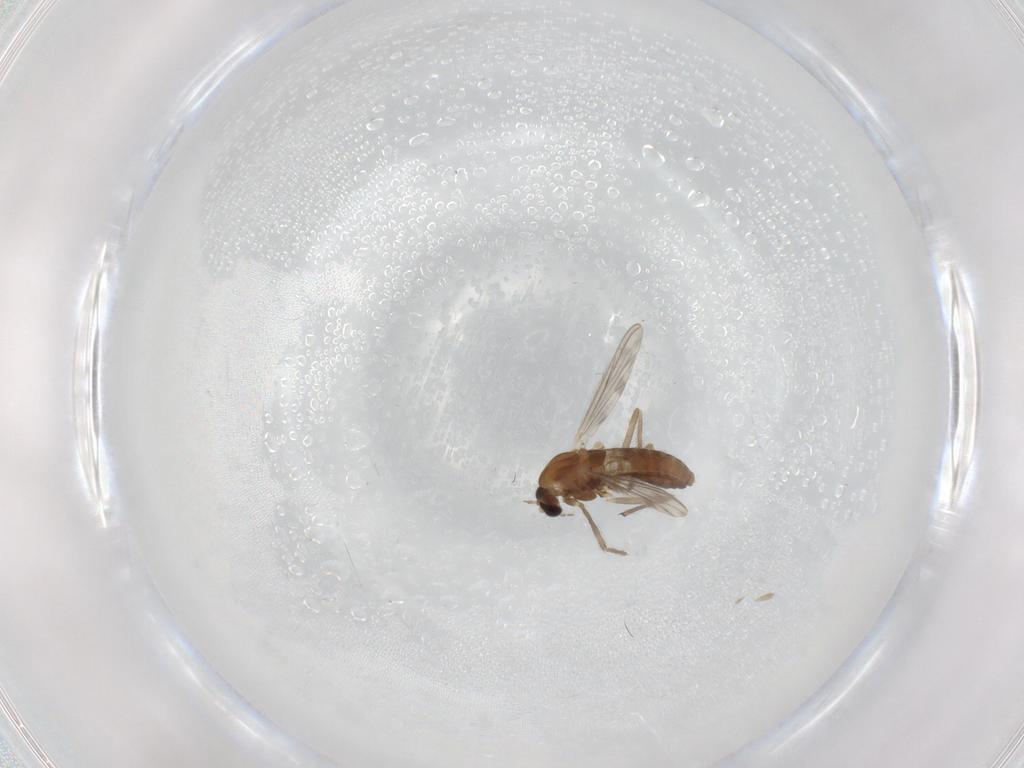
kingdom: Animalia
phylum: Arthropoda
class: Insecta
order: Diptera
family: Chironomidae
